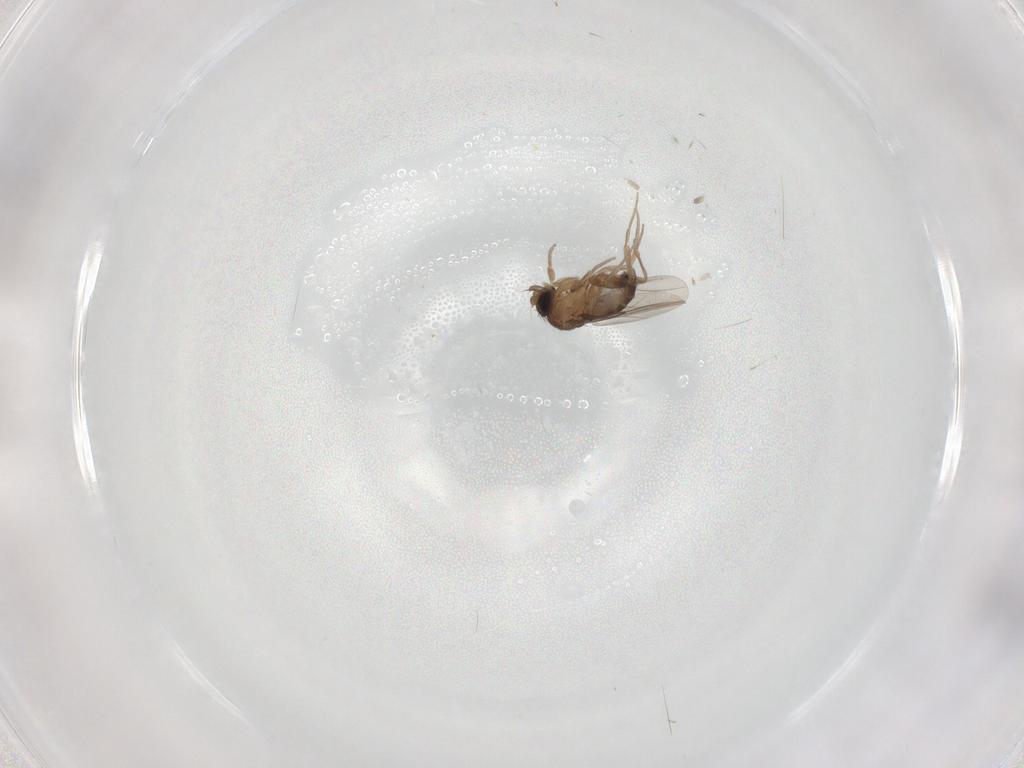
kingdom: Animalia
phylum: Arthropoda
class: Insecta
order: Diptera
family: Phoridae
